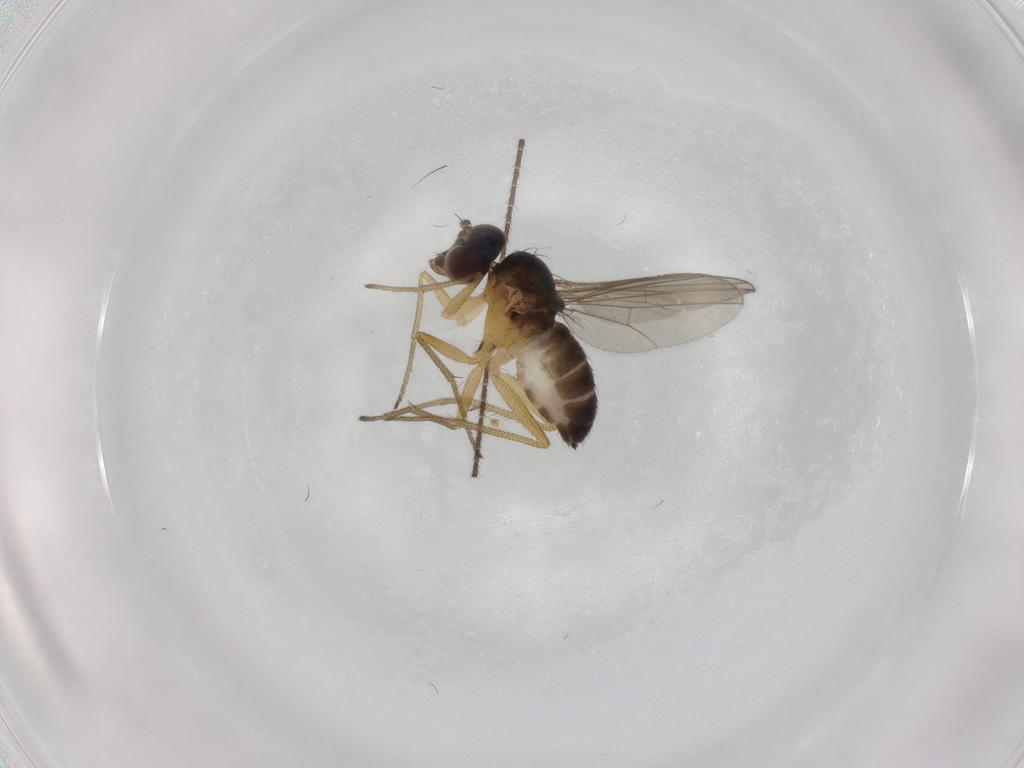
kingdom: Animalia
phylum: Arthropoda
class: Insecta
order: Diptera
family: Dolichopodidae
